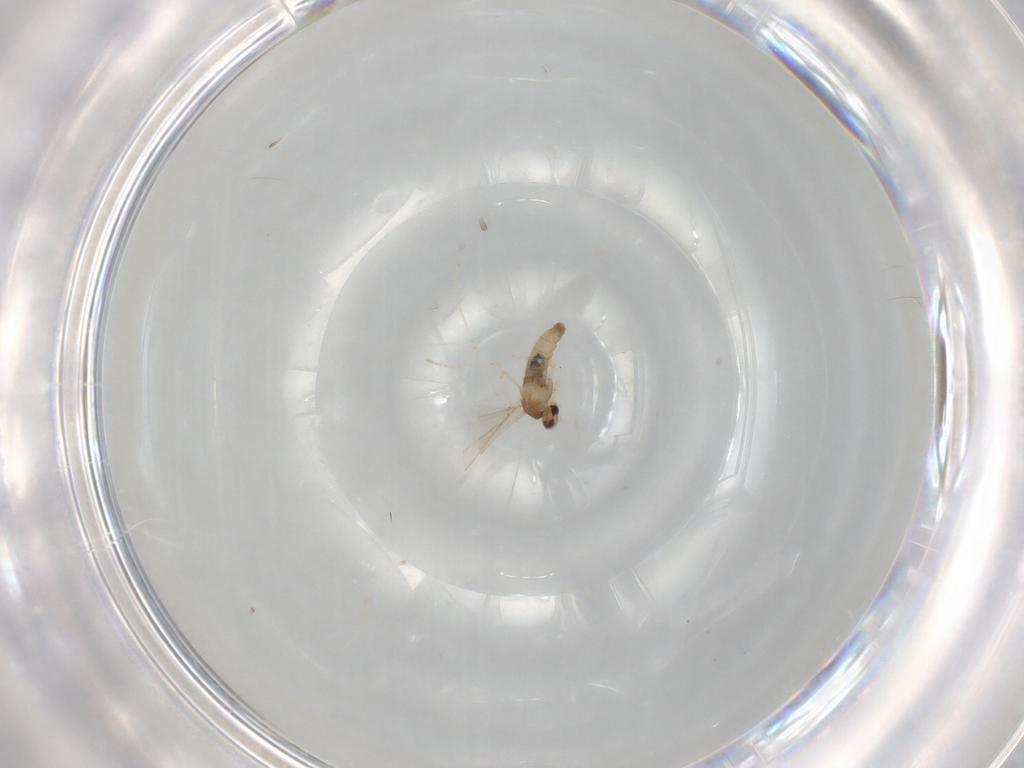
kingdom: Animalia
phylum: Arthropoda
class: Insecta
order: Diptera
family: Cecidomyiidae
